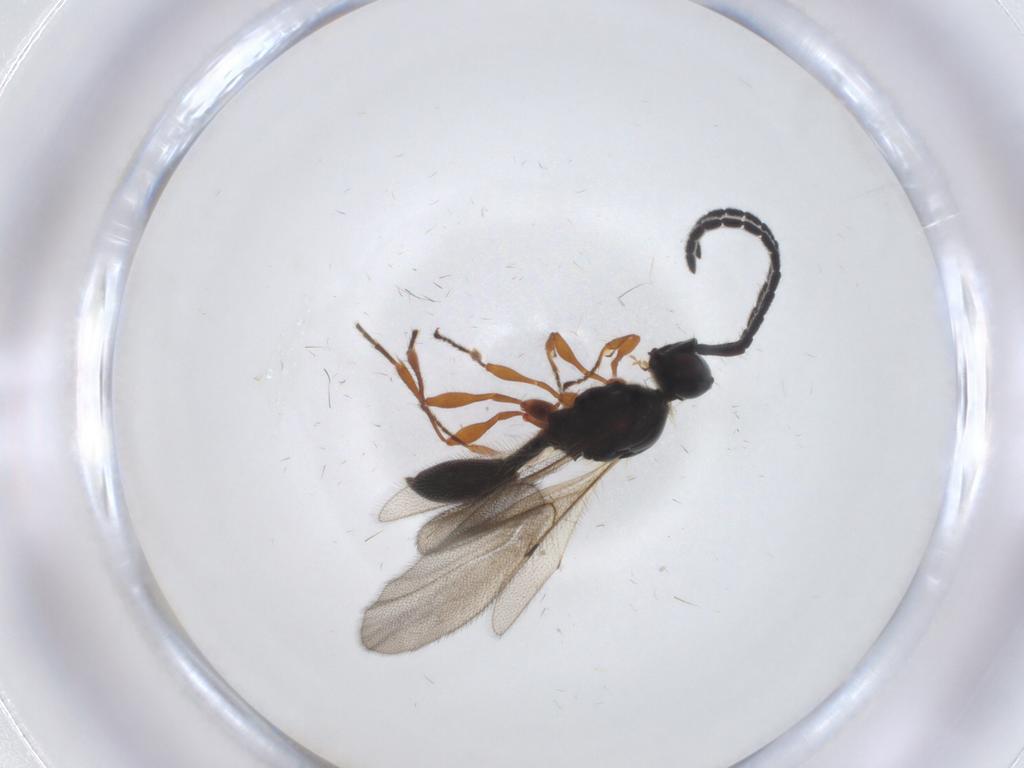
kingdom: Animalia
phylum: Arthropoda
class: Insecta
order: Hymenoptera
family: Diapriidae
